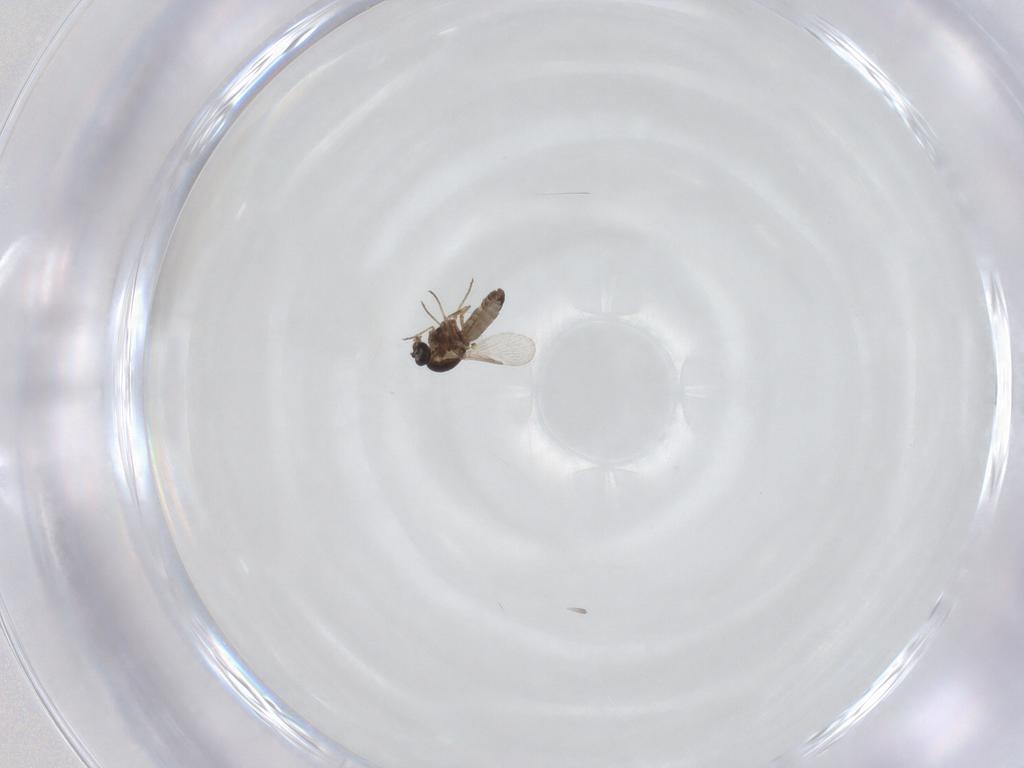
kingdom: Animalia
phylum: Arthropoda
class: Insecta
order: Diptera
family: Ceratopogonidae
